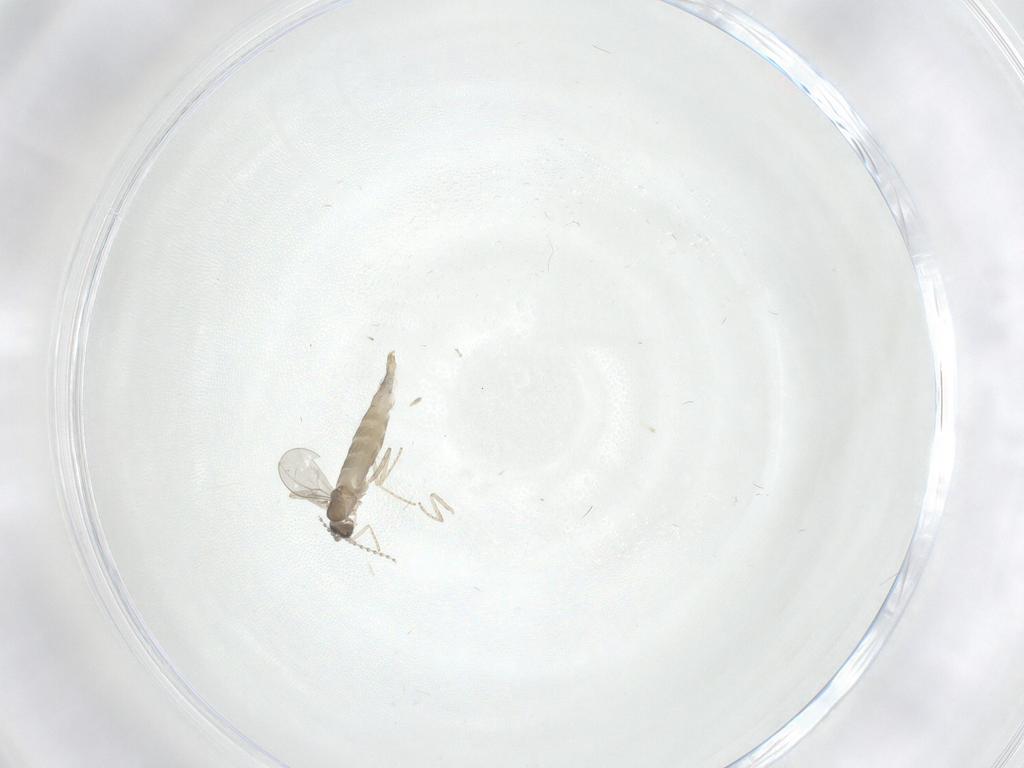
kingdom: Animalia
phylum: Arthropoda
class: Insecta
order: Diptera
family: Cecidomyiidae
